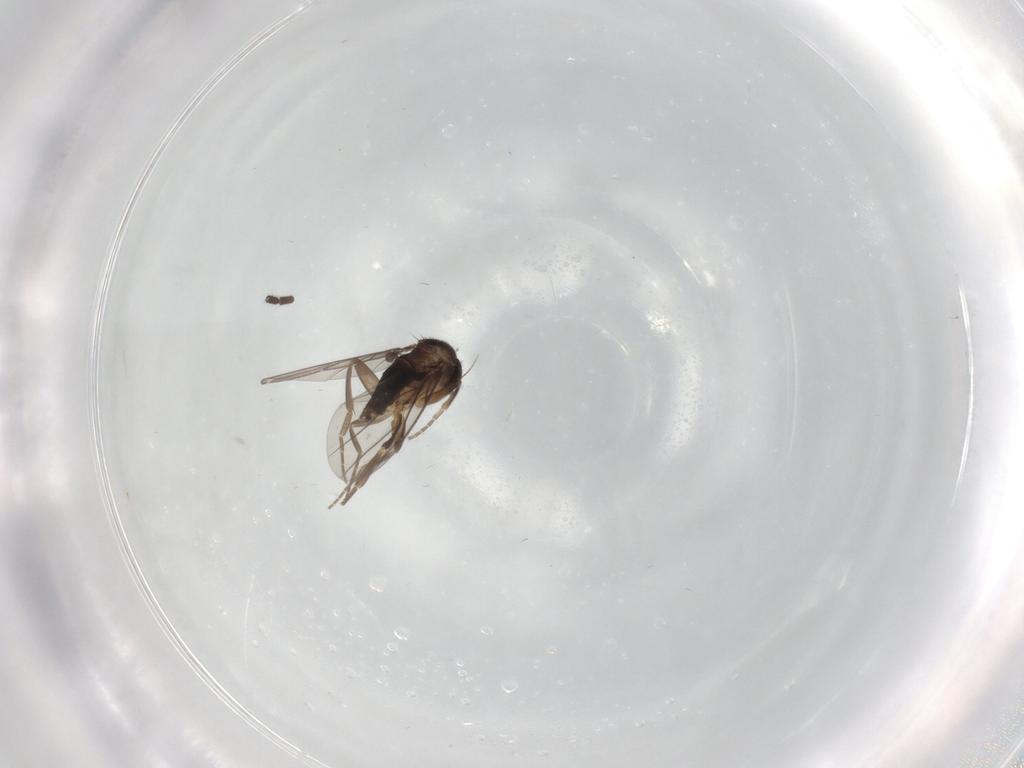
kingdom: Animalia
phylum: Arthropoda
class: Insecta
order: Diptera
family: Phoridae
